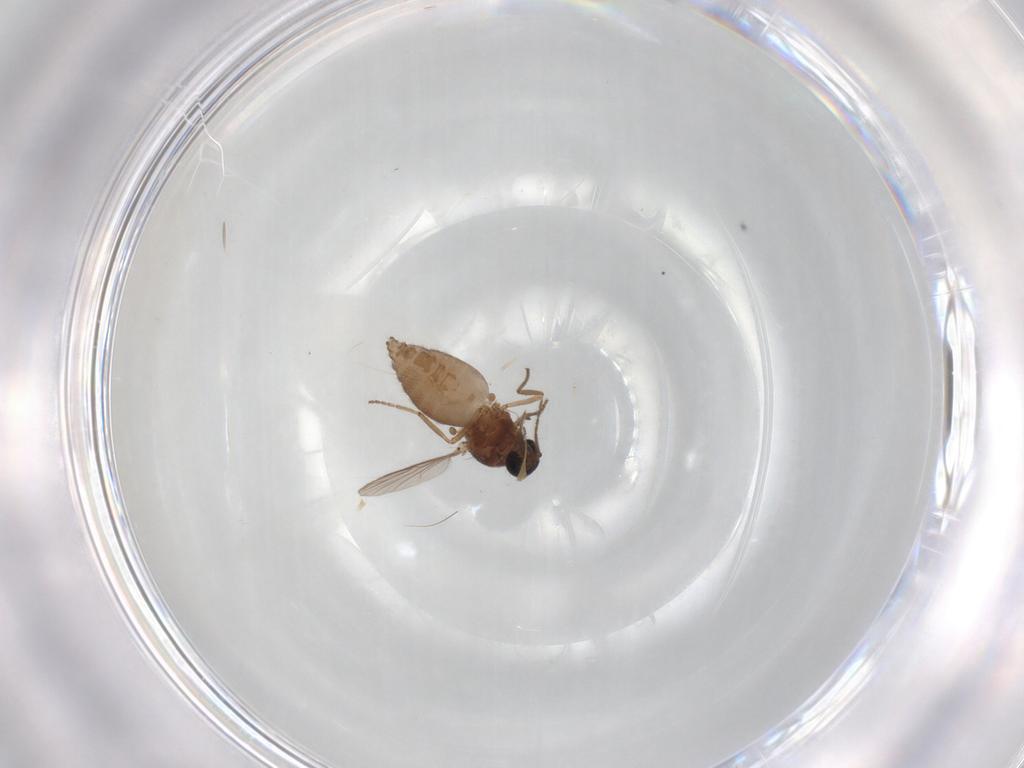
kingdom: Animalia
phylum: Arthropoda
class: Insecta
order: Diptera
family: Ceratopogonidae
